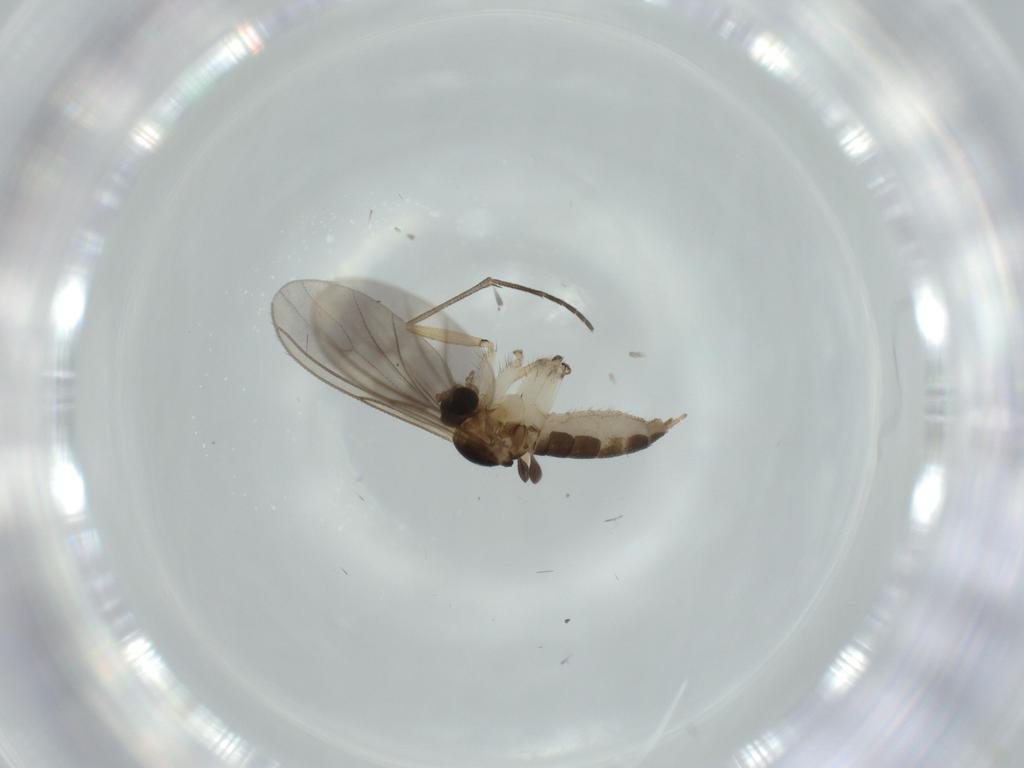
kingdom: Animalia
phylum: Arthropoda
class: Insecta
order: Diptera
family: Sciaridae
